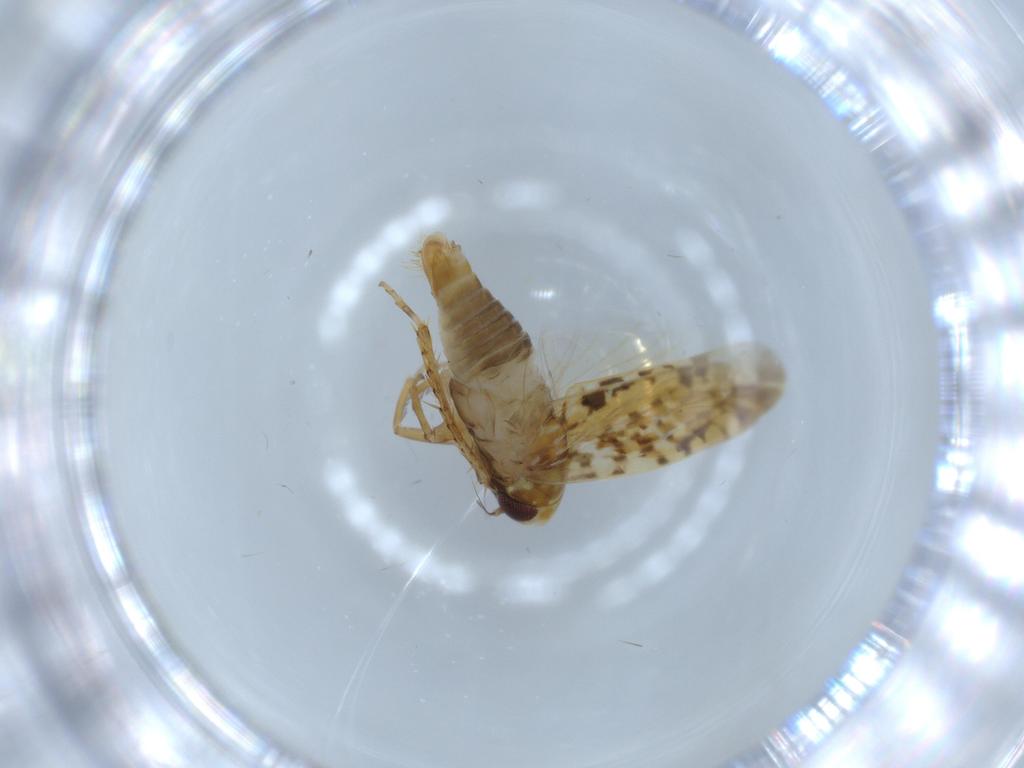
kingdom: Animalia
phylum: Arthropoda
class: Insecta
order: Hemiptera
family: Cicadellidae
